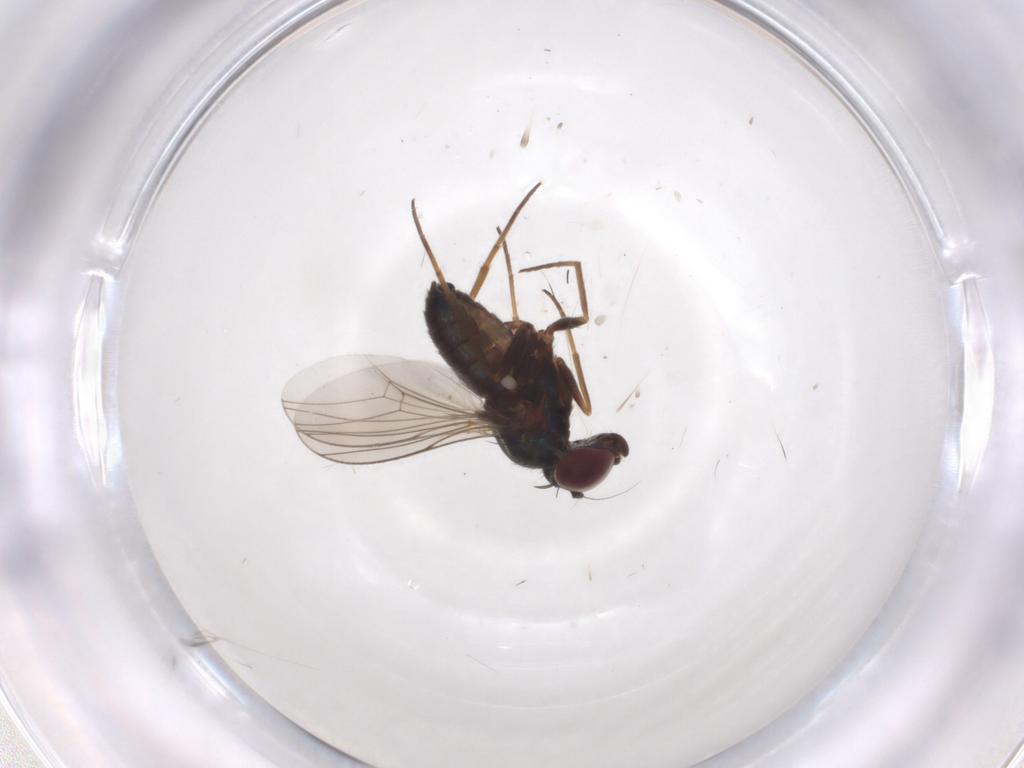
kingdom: Animalia
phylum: Arthropoda
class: Insecta
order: Diptera
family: Dolichopodidae
